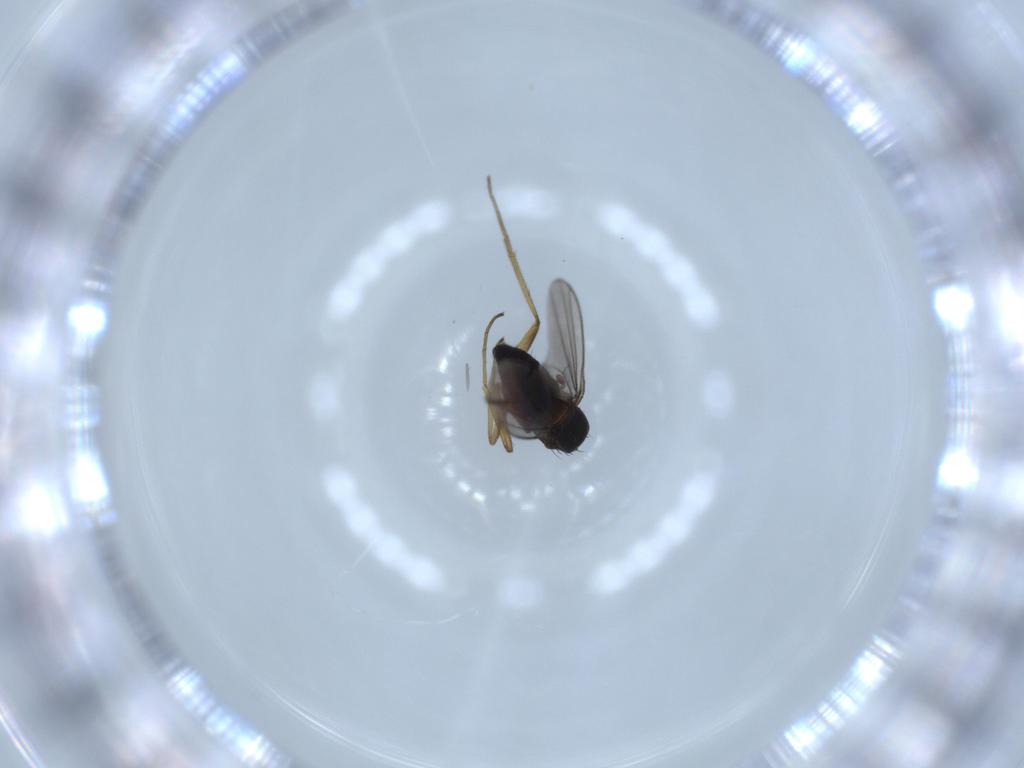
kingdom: Animalia
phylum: Arthropoda
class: Insecta
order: Diptera
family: Dolichopodidae
